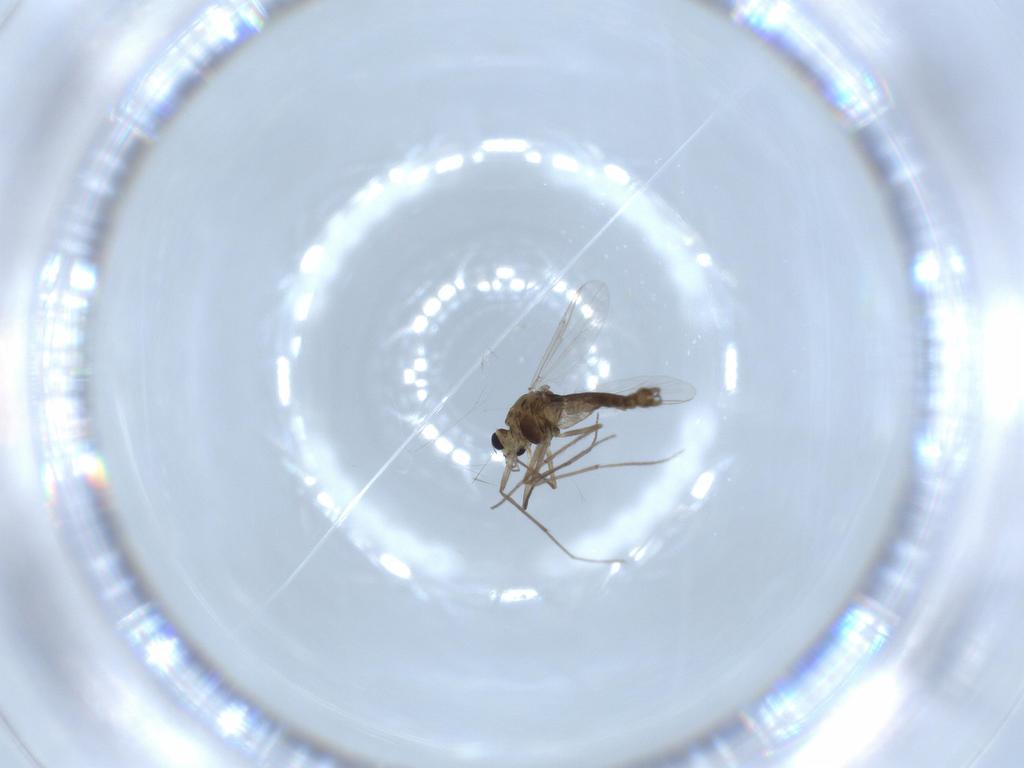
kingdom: Animalia
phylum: Arthropoda
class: Insecta
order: Diptera
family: Chironomidae
